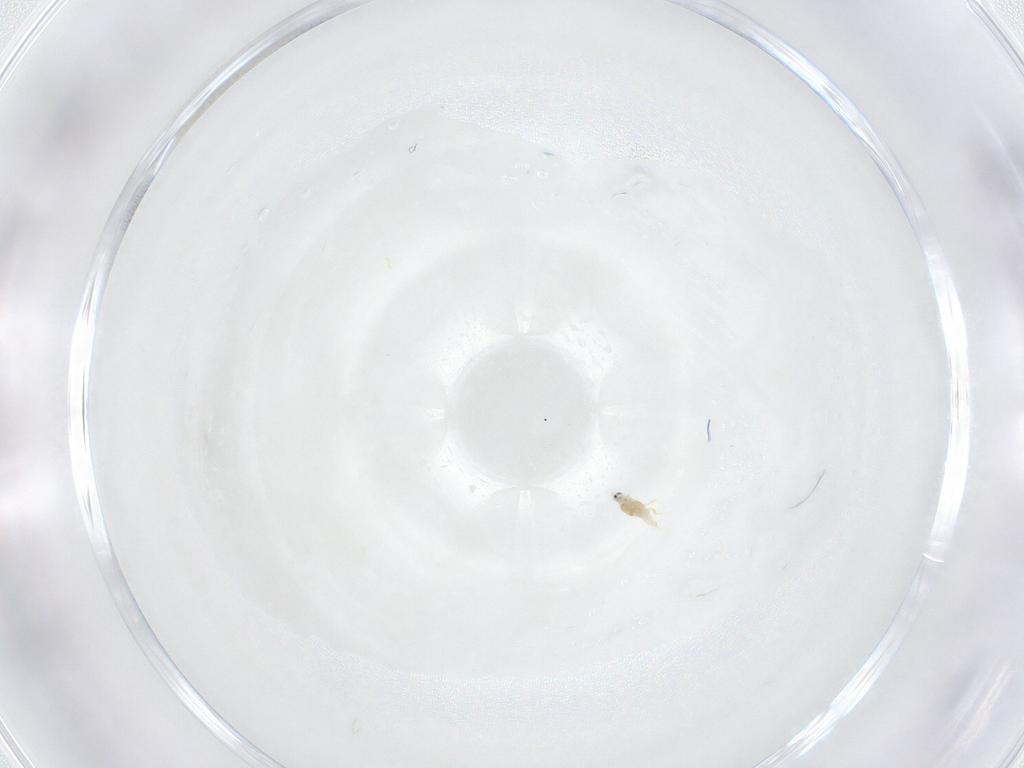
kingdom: Animalia
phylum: Arthropoda
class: Insecta
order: Hemiptera
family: Diaspididae
